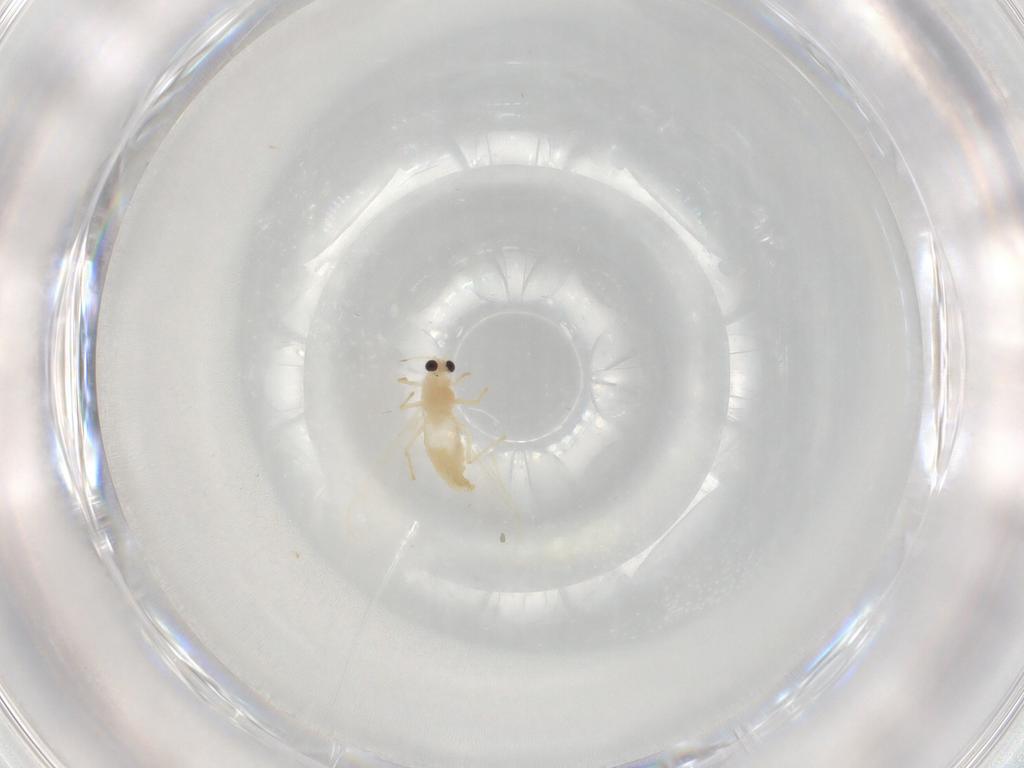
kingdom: Animalia
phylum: Arthropoda
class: Insecta
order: Diptera
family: Chironomidae
